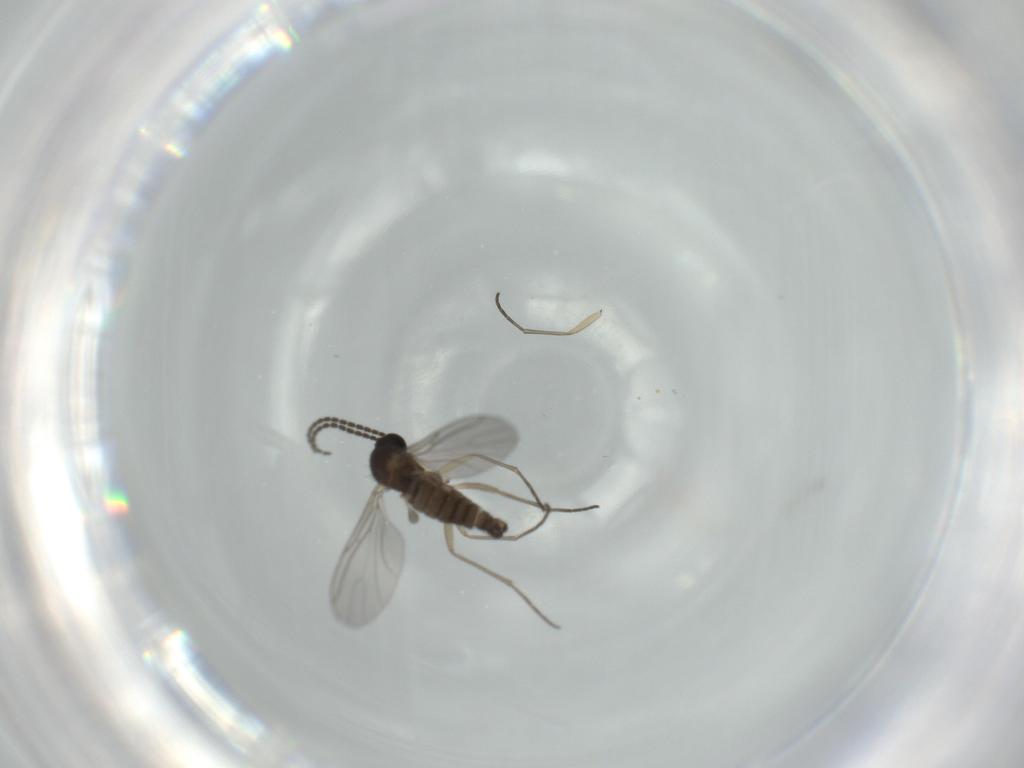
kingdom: Animalia
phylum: Arthropoda
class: Insecta
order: Diptera
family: Sciaridae
